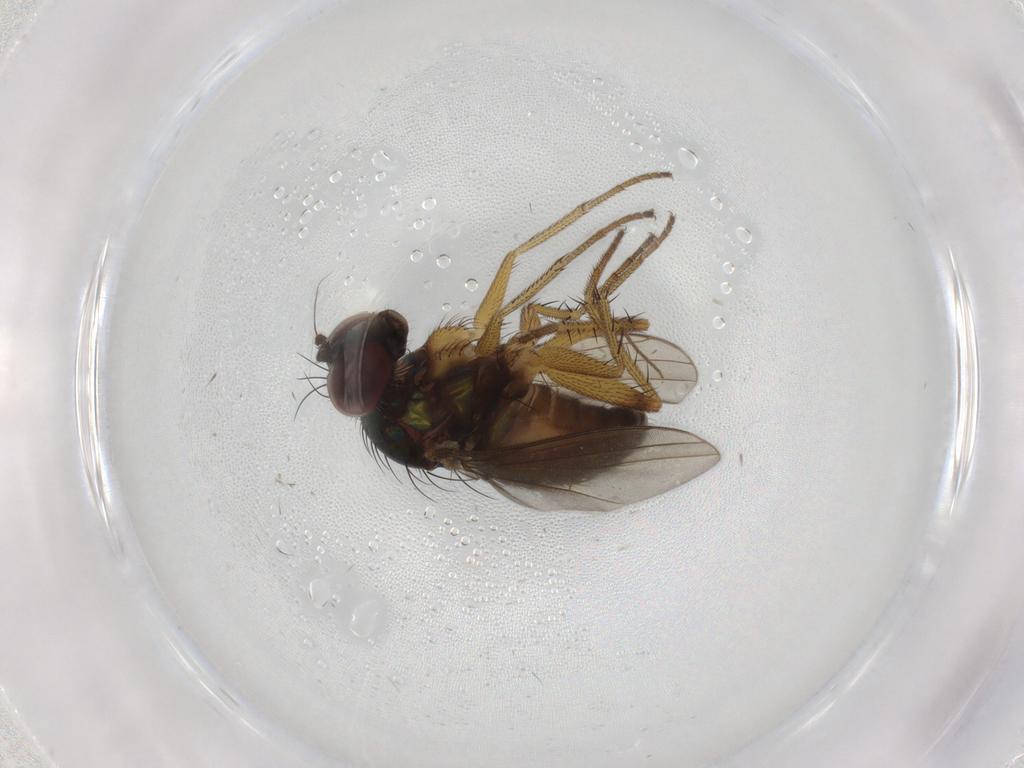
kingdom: Animalia
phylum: Arthropoda
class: Insecta
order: Diptera
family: Dolichopodidae
